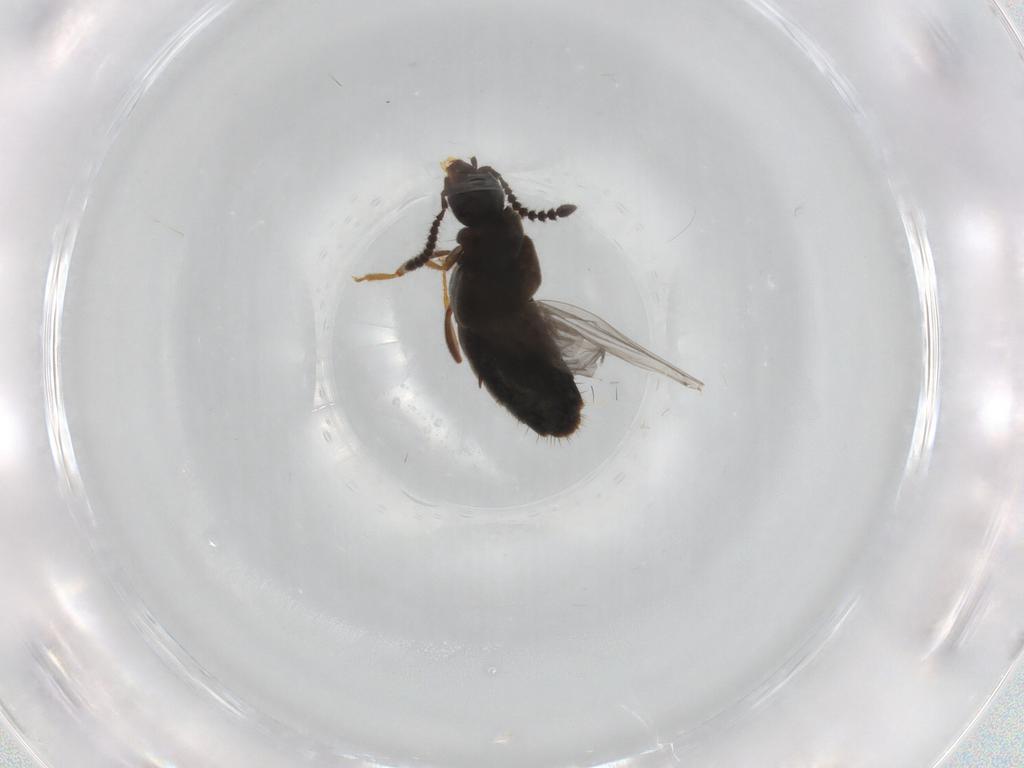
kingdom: Animalia
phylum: Arthropoda
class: Insecta
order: Coleoptera
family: Staphylinidae
